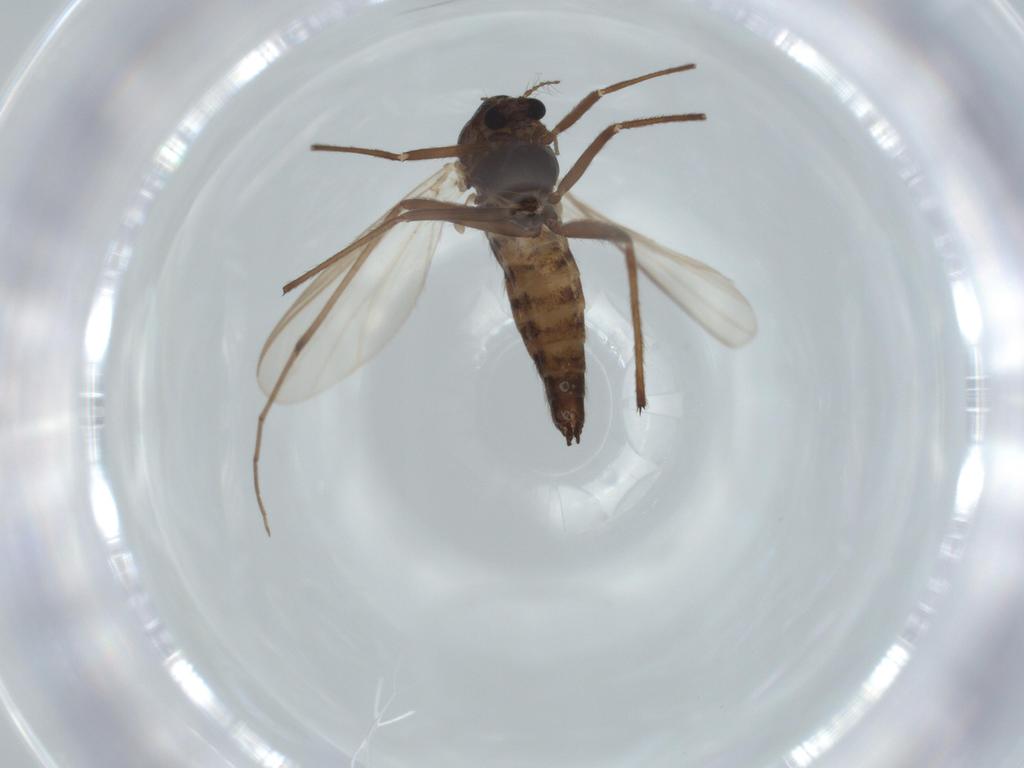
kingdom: Animalia
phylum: Arthropoda
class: Insecta
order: Diptera
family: Chironomidae
